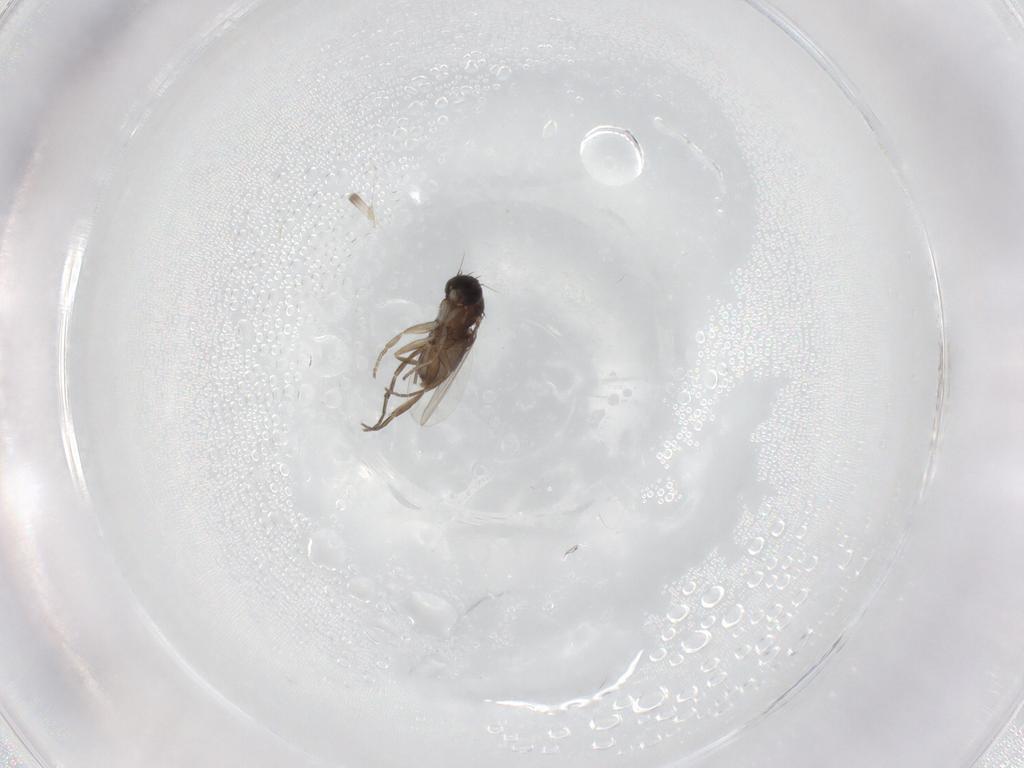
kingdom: Animalia
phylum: Arthropoda
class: Insecta
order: Diptera
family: Phoridae
